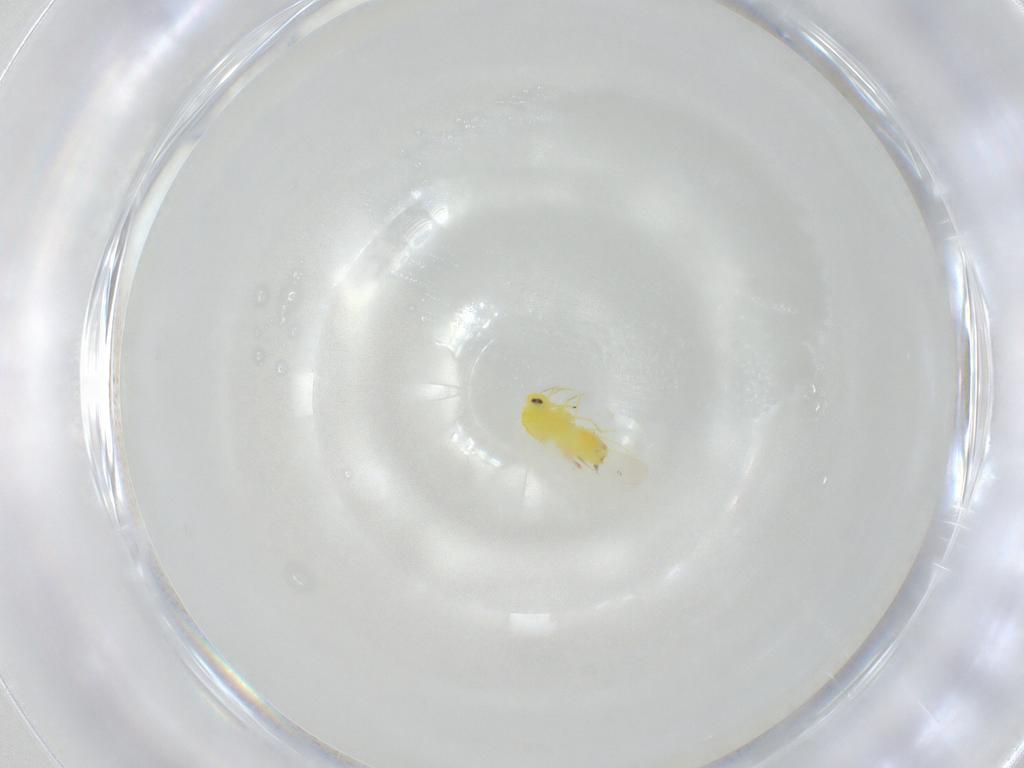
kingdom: Animalia
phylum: Arthropoda
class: Insecta
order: Hemiptera
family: Aleyrodidae
